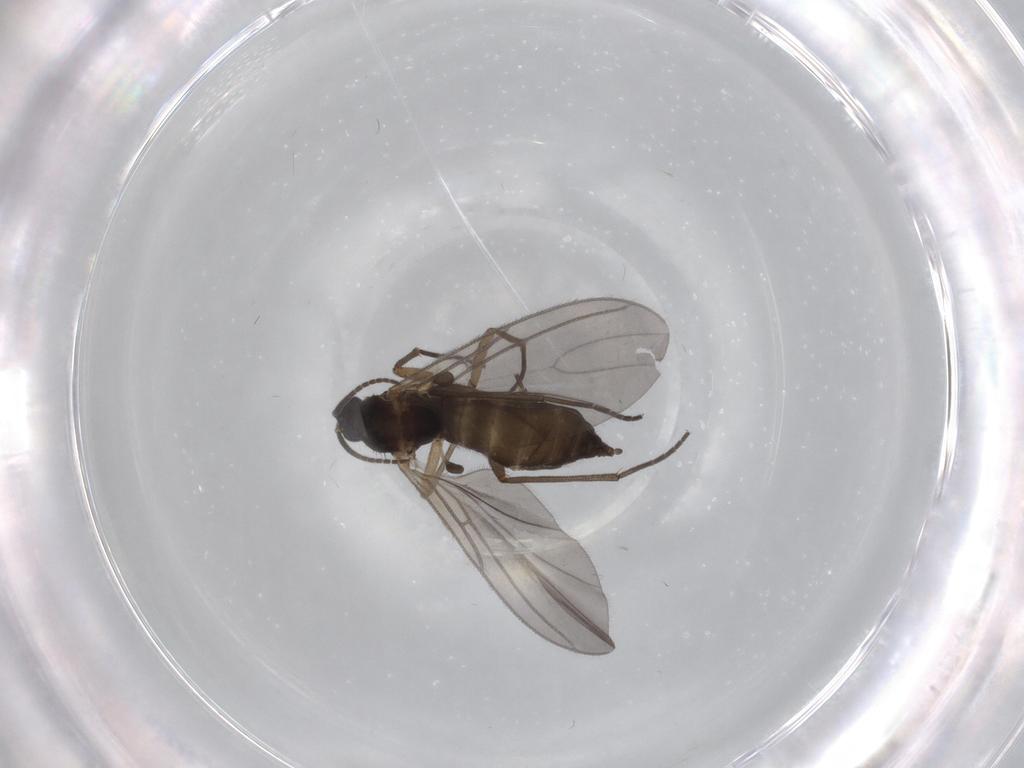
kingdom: Animalia
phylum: Arthropoda
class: Insecta
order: Diptera
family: Sciaridae
